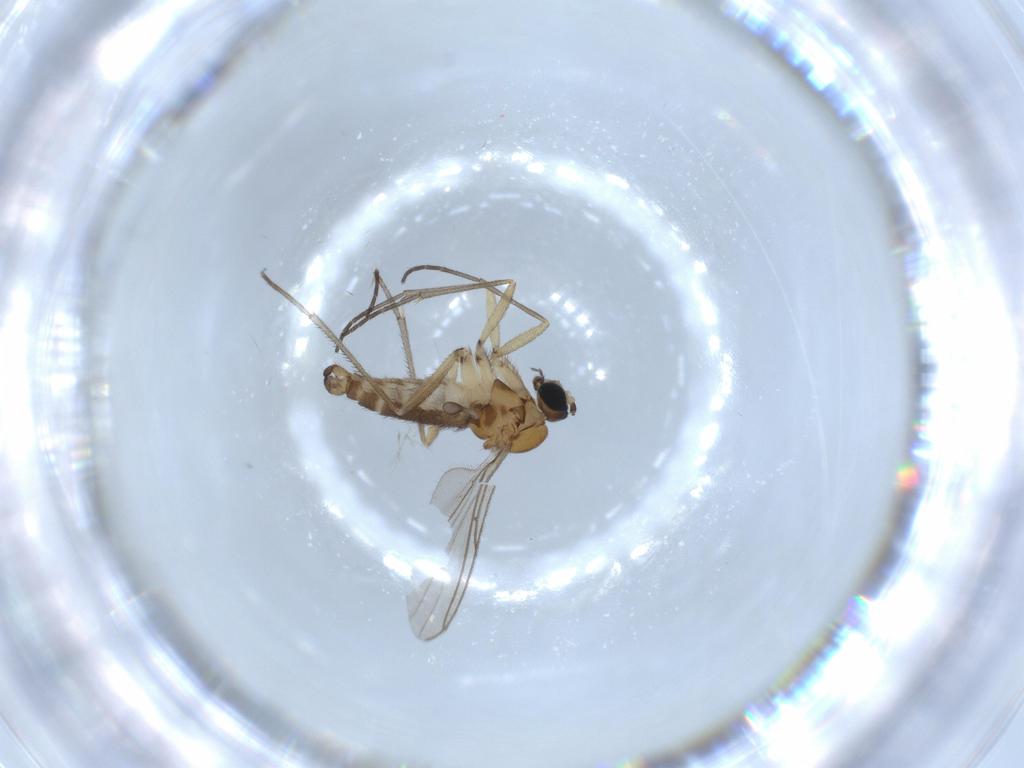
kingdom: Animalia
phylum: Arthropoda
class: Insecta
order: Diptera
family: Sciaridae
